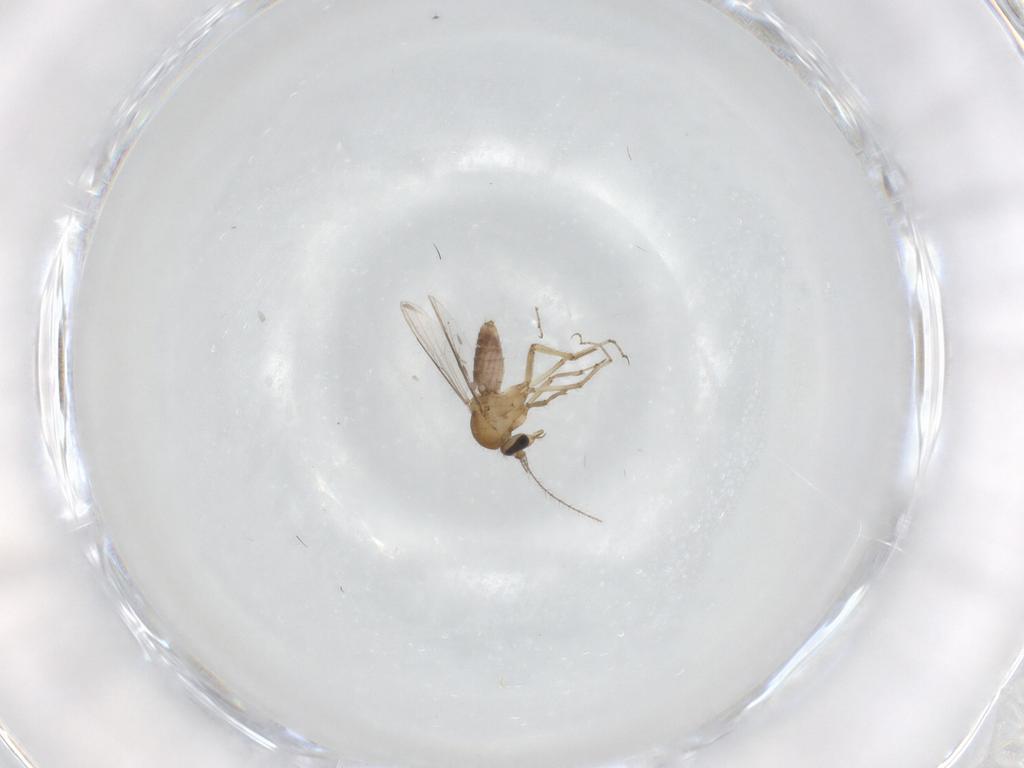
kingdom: Animalia
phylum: Arthropoda
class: Insecta
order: Diptera
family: Ceratopogonidae
